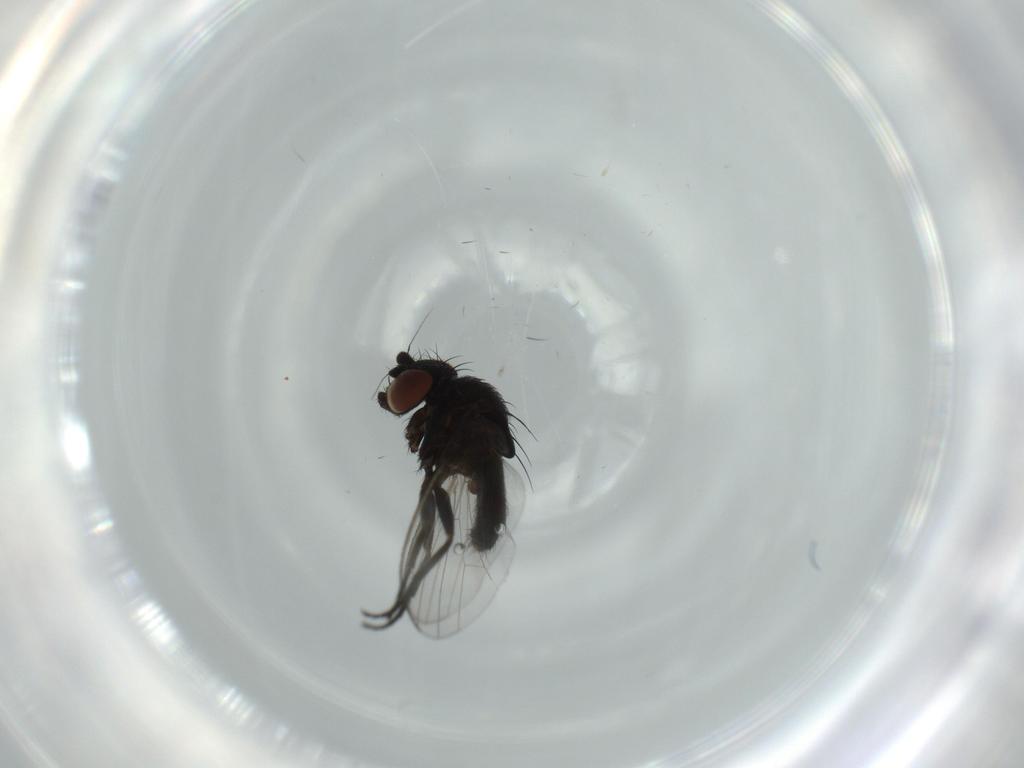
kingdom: Animalia
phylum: Arthropoda
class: Insecta
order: Diptera
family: Milichiidae
